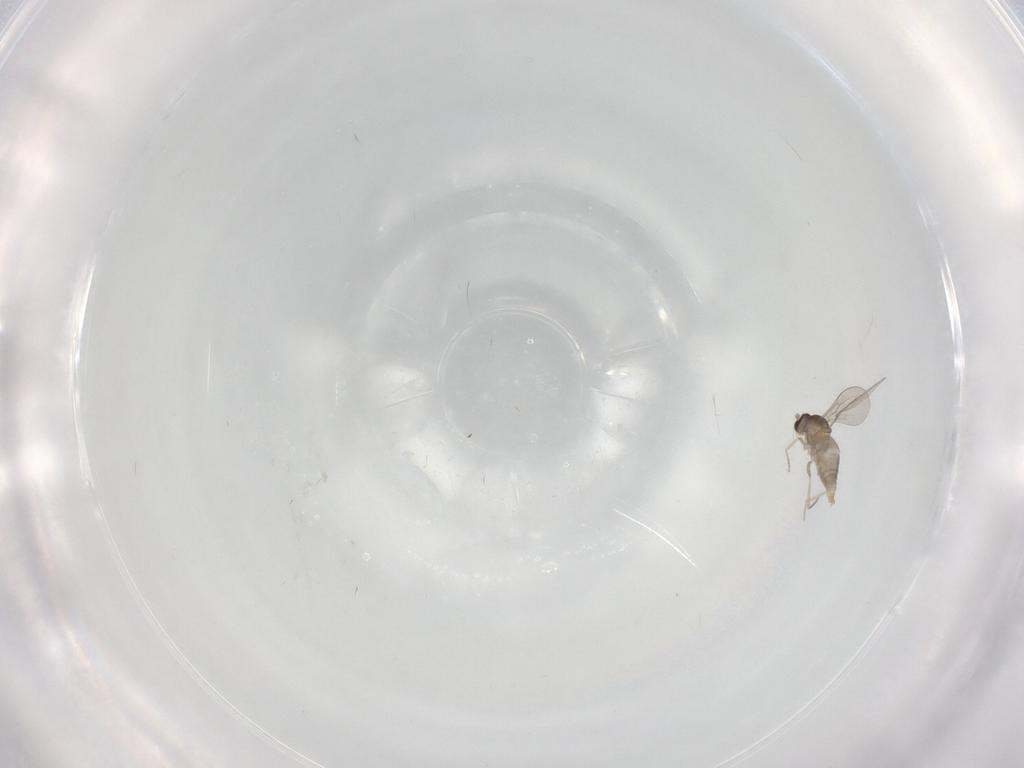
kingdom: Animalia
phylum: Arthropoda
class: Insecta
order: Diptera
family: Cecidomyiidae
